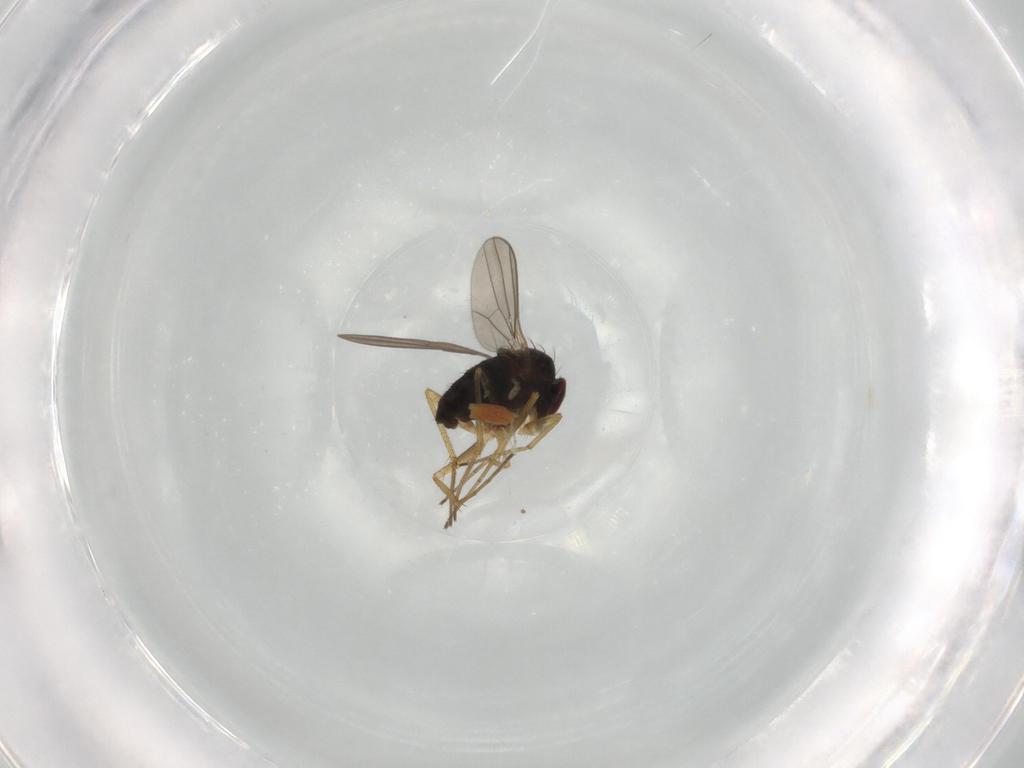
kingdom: Animalia
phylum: Arthropoda
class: Insecta
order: Diptera
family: Dolichopodidae
